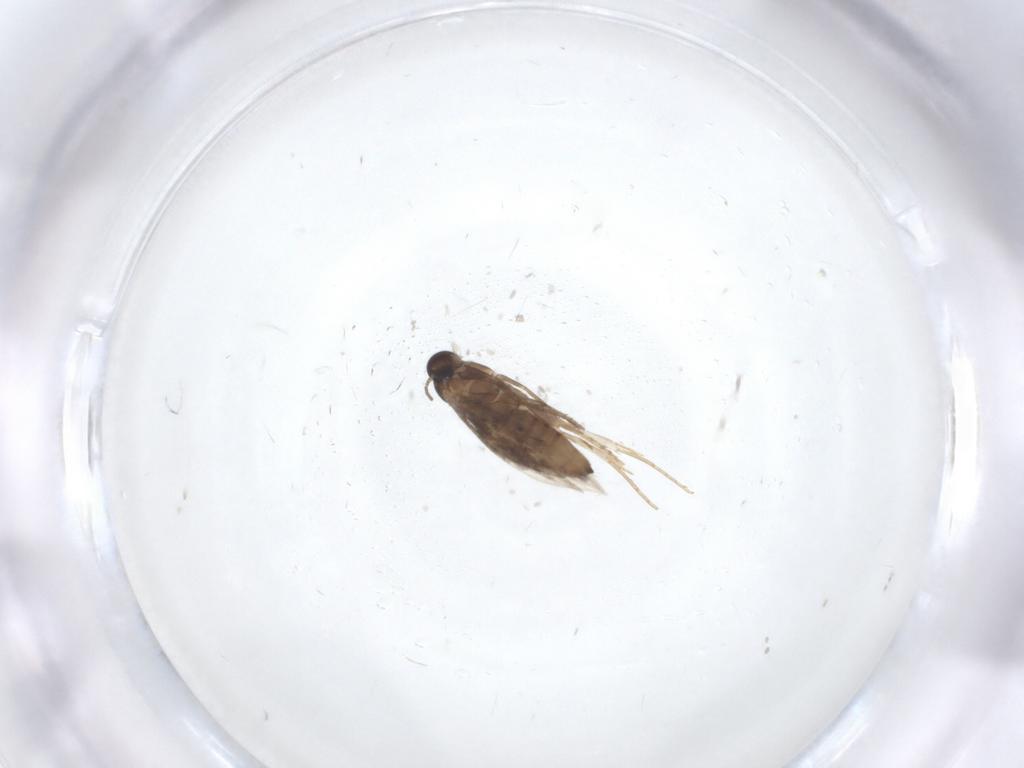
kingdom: Animalia
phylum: Arthropoda
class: Insecta
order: Lepidoptera
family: Heliozelidae
